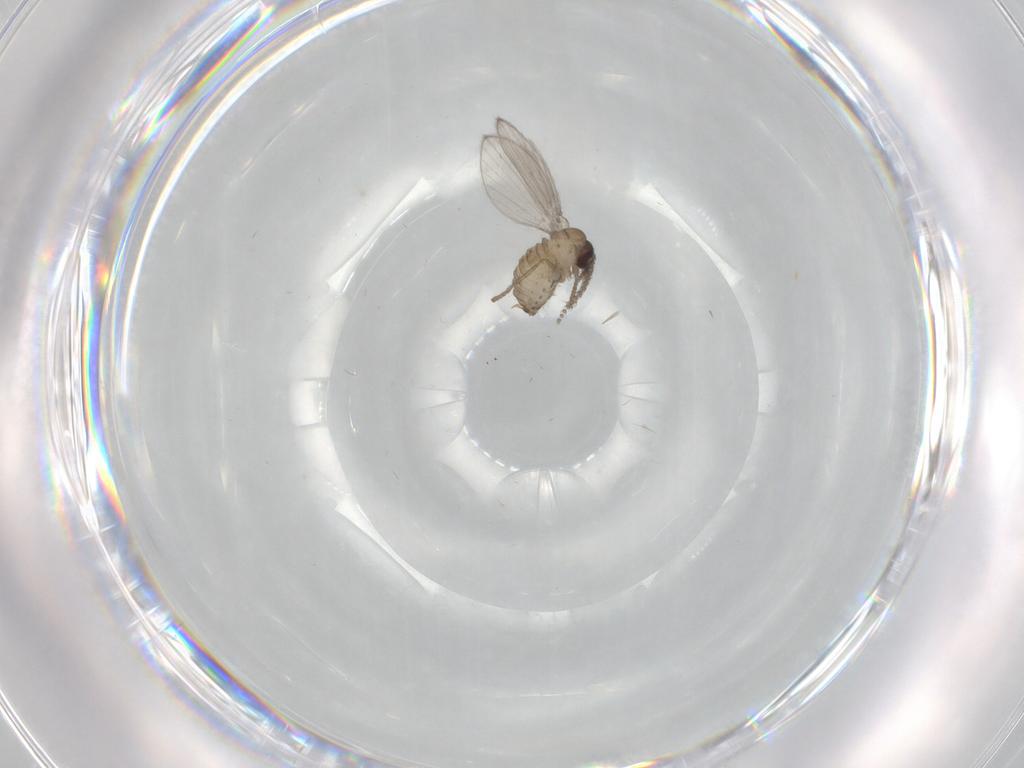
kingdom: Animalia
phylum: Arthropoda
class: Insecta
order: Diptera
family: Psychodidae
